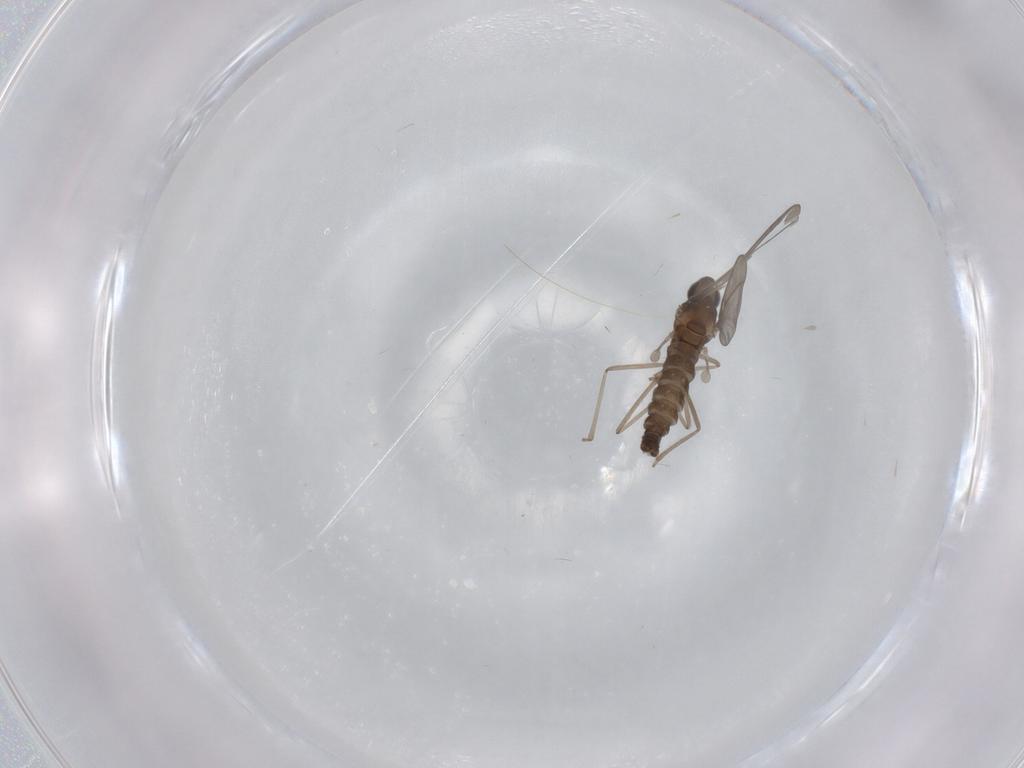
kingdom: Animalia
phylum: Arthropoda
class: Insecta
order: Diptera
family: Cecidomyiidae
